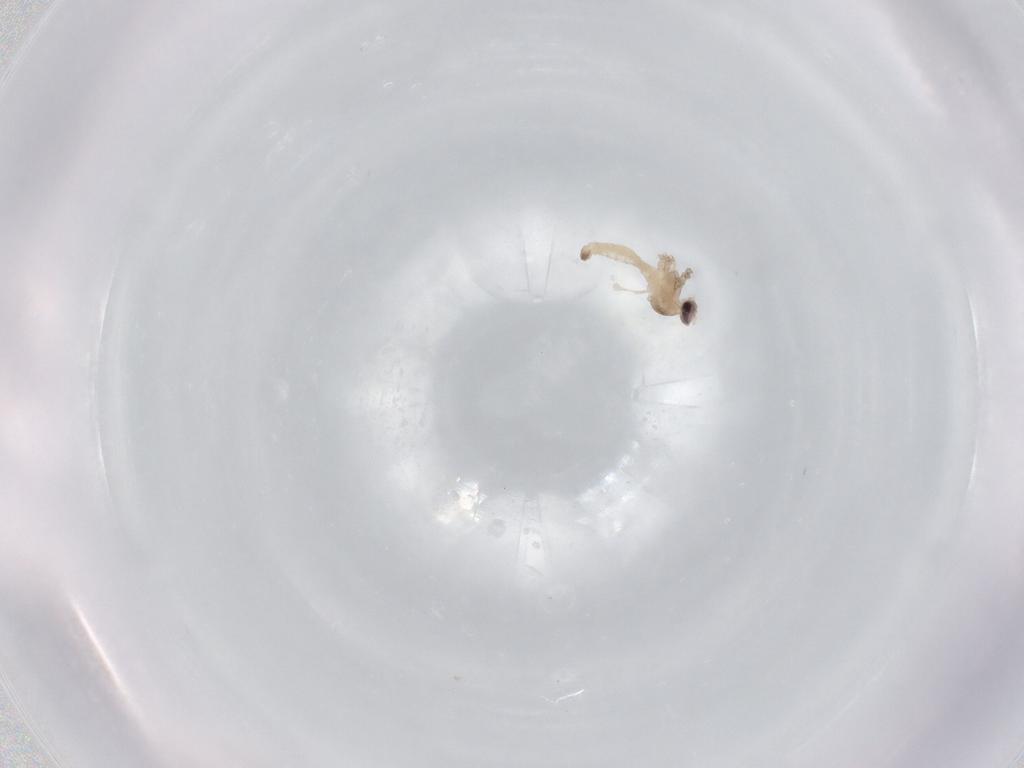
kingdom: Animalia
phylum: Arthropoda
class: Insecta
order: Diptera
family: Cecidomyiidae
